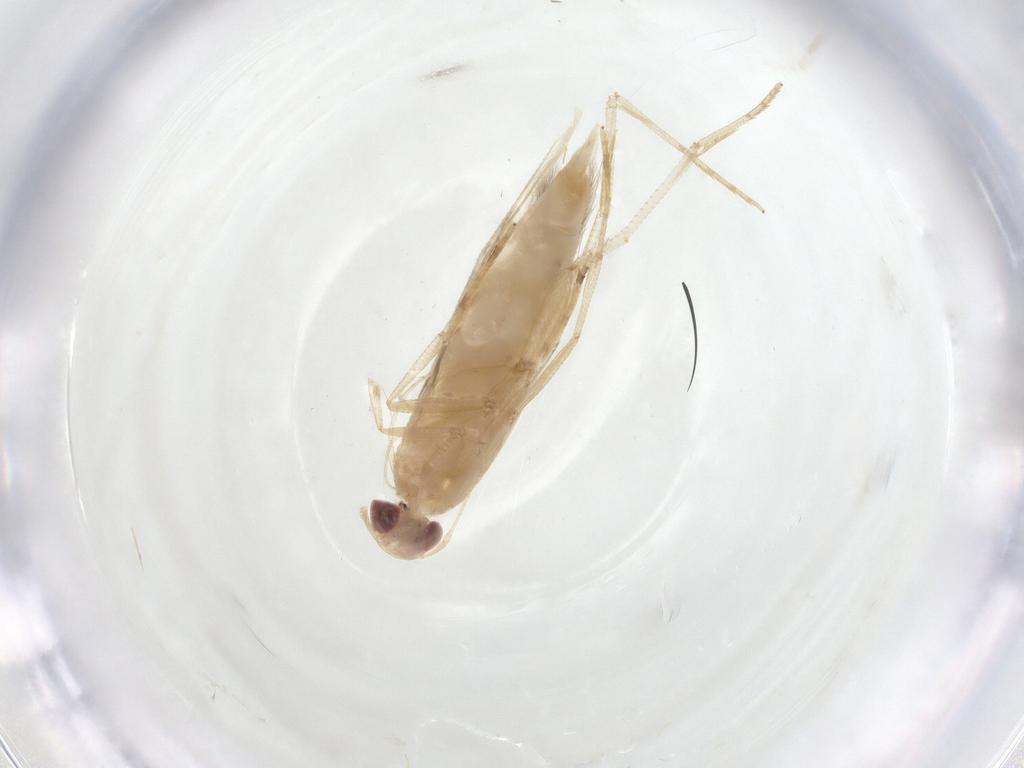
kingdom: Animalia
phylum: Arthropoda
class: Insecta
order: Lepidoptera
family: Cosmopterigidae
